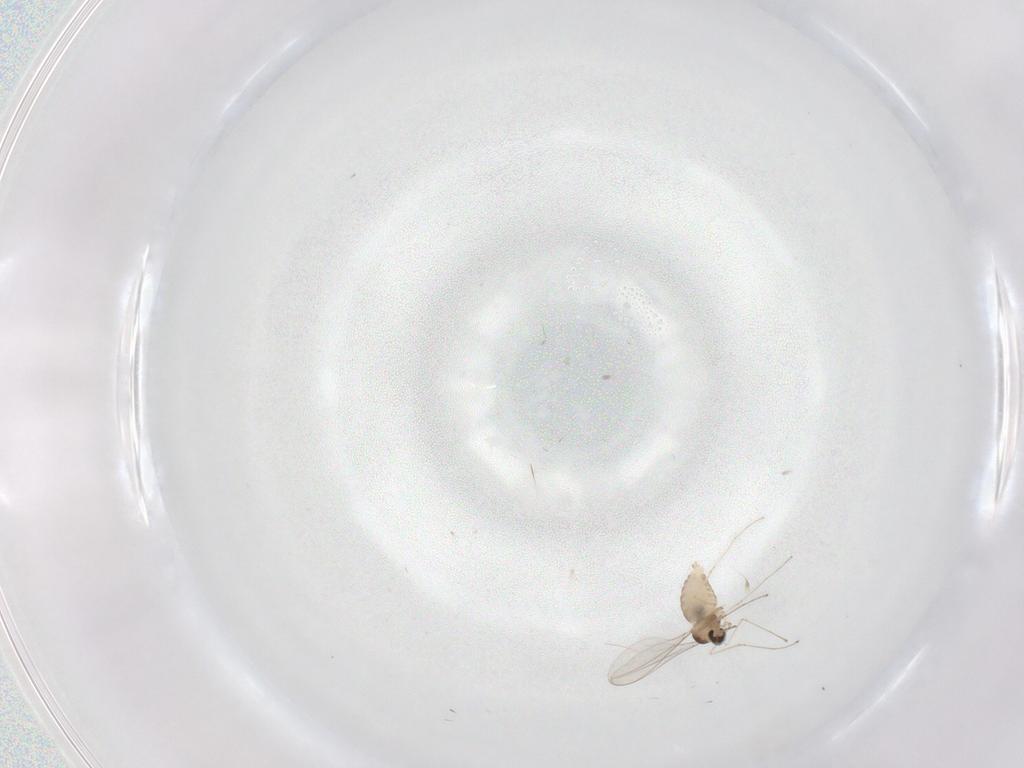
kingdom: Animalia
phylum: Arthropoda
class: Insecta
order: Diptera
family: Cecidomyiidae
